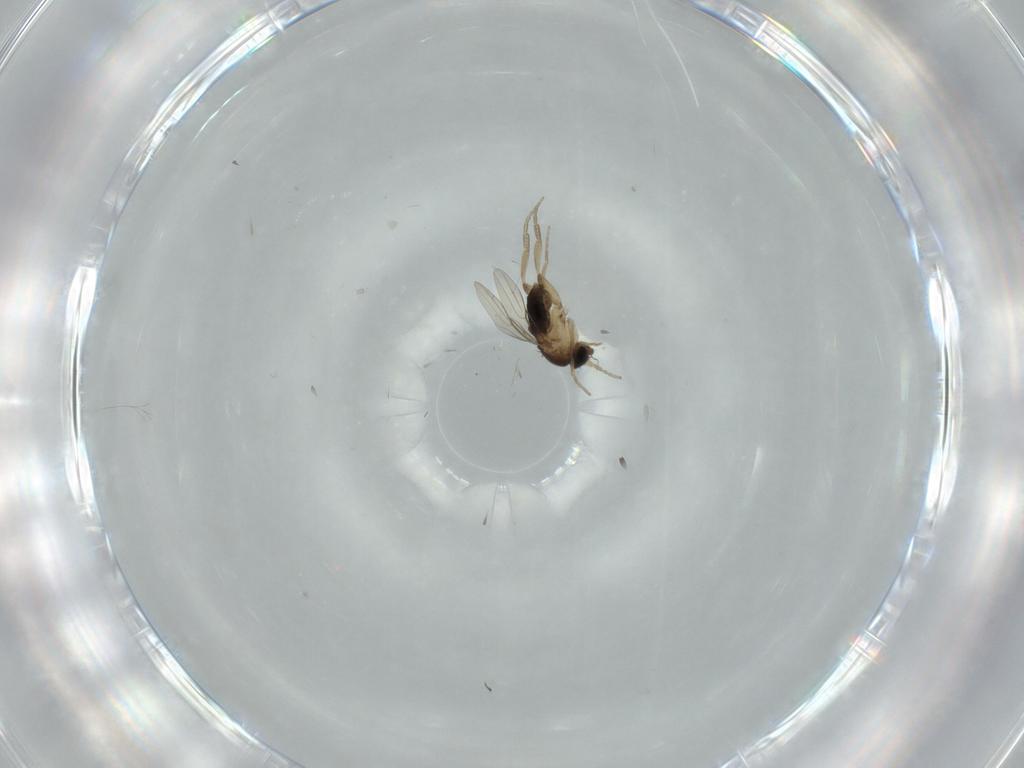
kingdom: Animalia
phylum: Arthropoda
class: Insecta
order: Diptera
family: Phoridae
